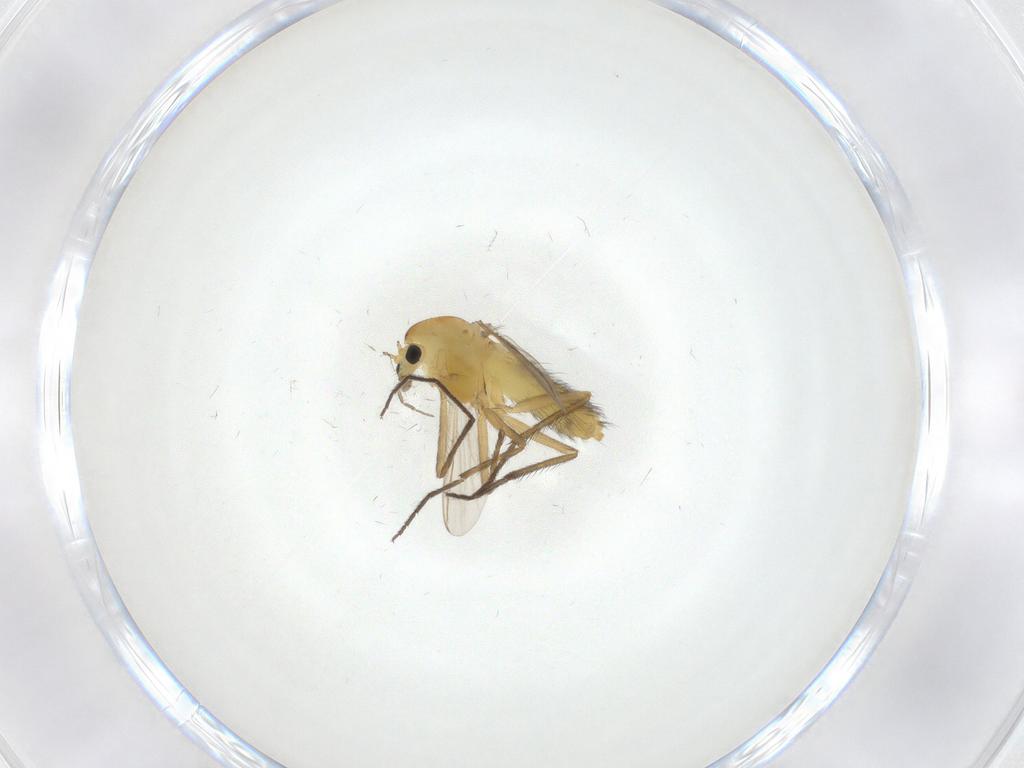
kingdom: Animalia
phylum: Arthropoda
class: Insecta
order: Diptera
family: Chironomidae
